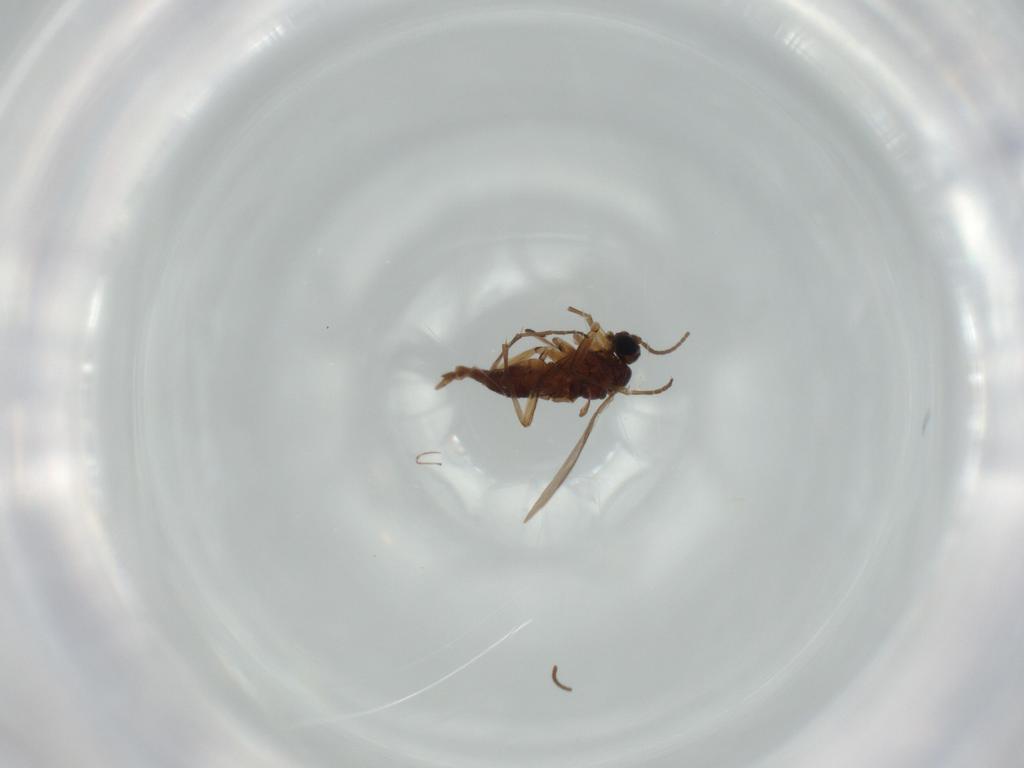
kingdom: Animalia
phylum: Arthropoda
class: Insecta
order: Diptera
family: Sciaridae
